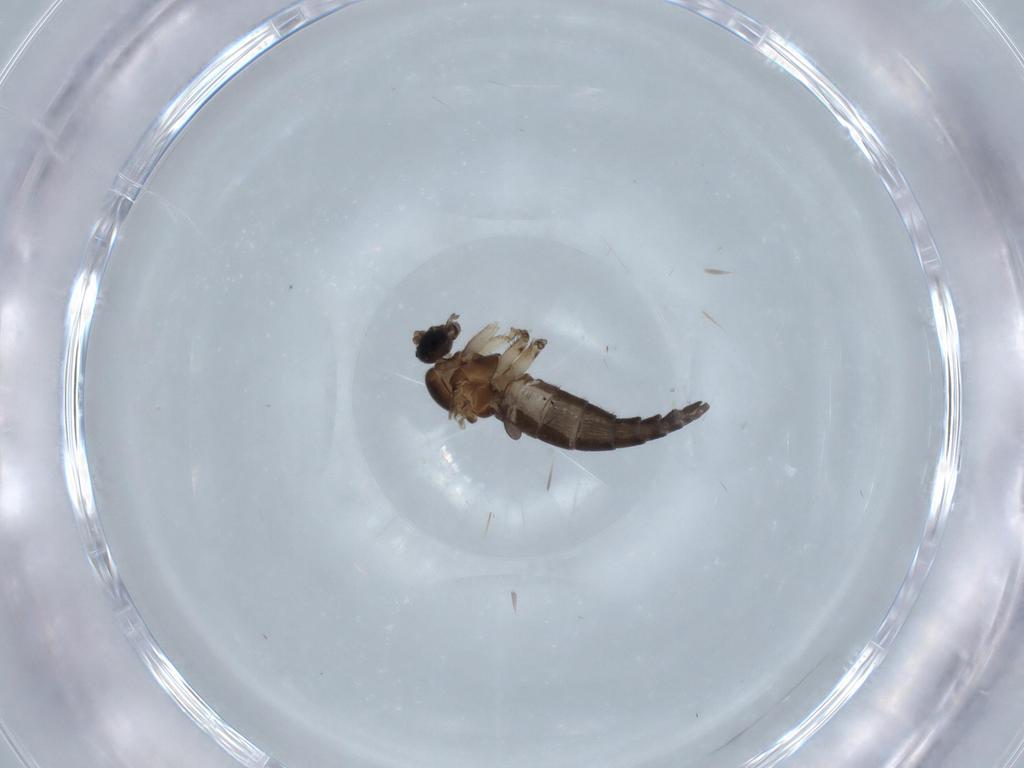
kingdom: Animalia
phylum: Arthropoda
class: Insecta
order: Diptera
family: Sciaridae
